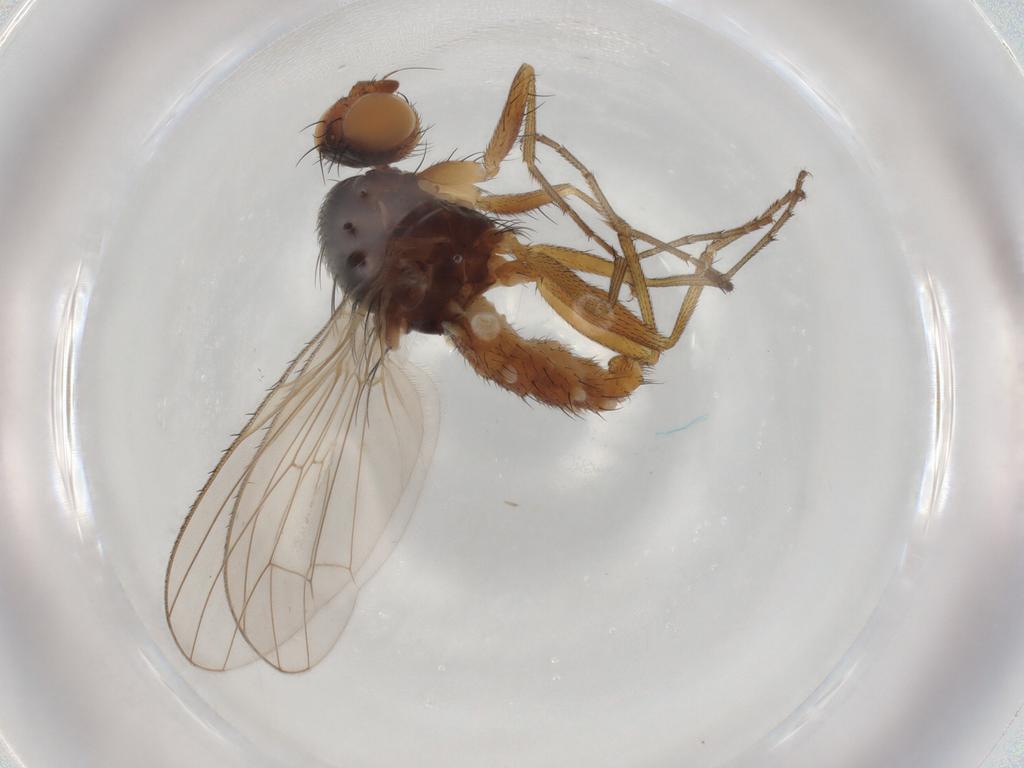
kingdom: Animalia
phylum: Arthropoda
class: Insecta
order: Diptera
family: Heleomyzidae
